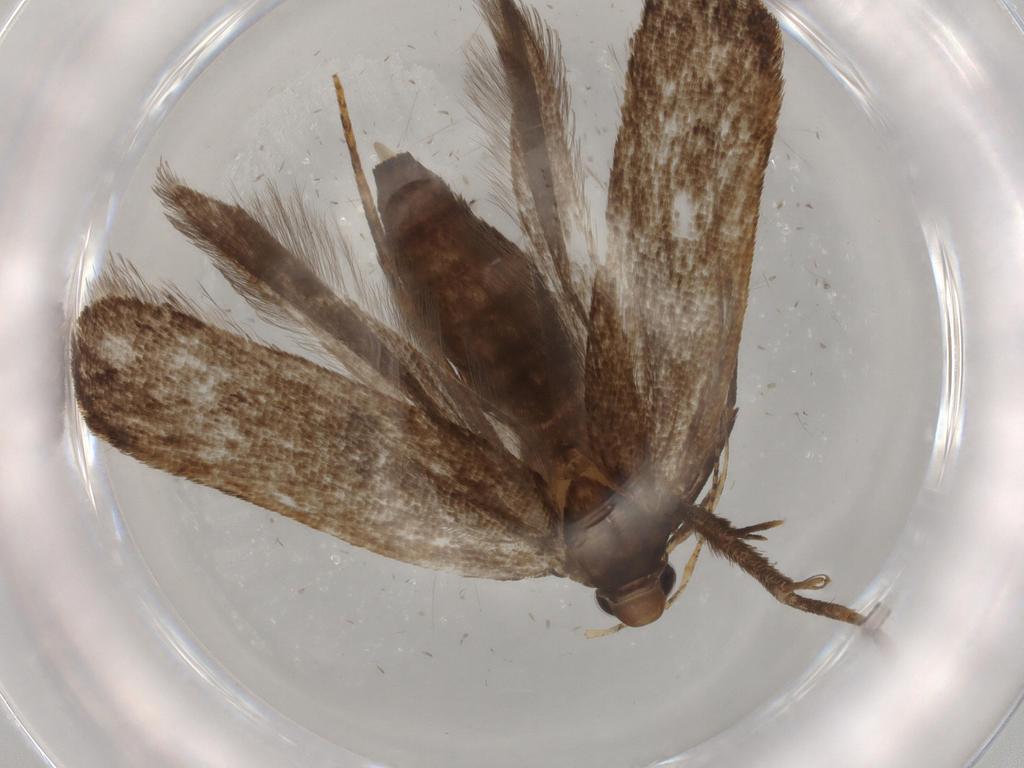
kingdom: Animalia
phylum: Arthropoda
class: Insecta
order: Lepidoptera
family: Gelechiidae
